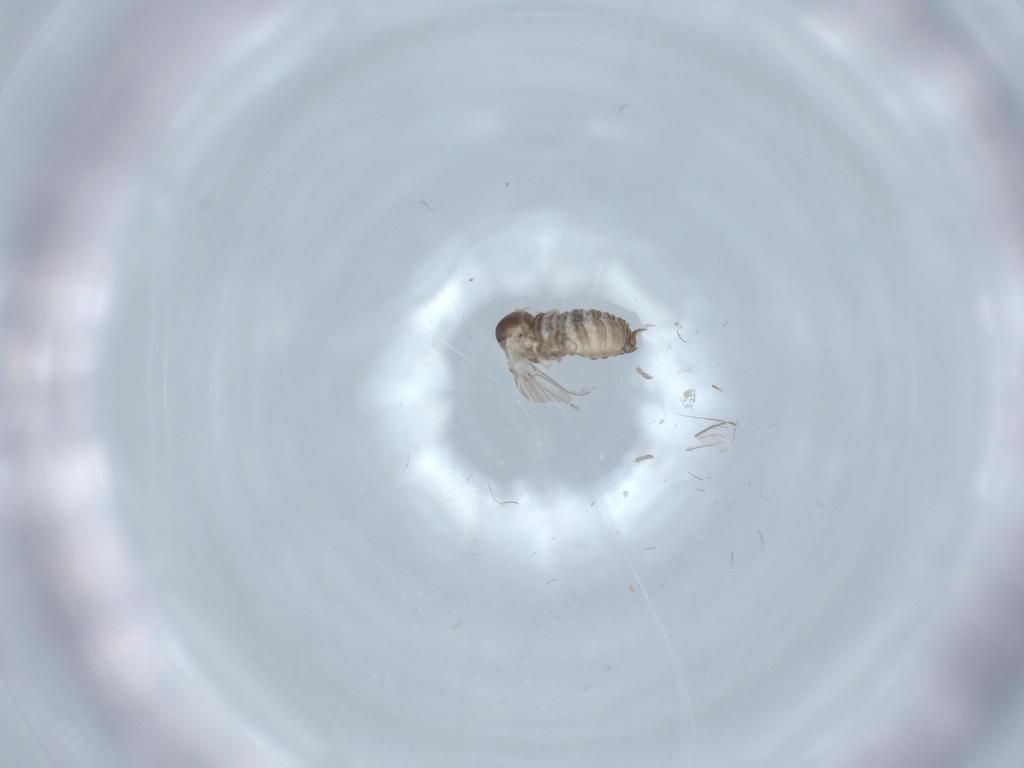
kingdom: Animalia
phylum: Arthropoda
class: Insecta
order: Diptera
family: Psychodidae
